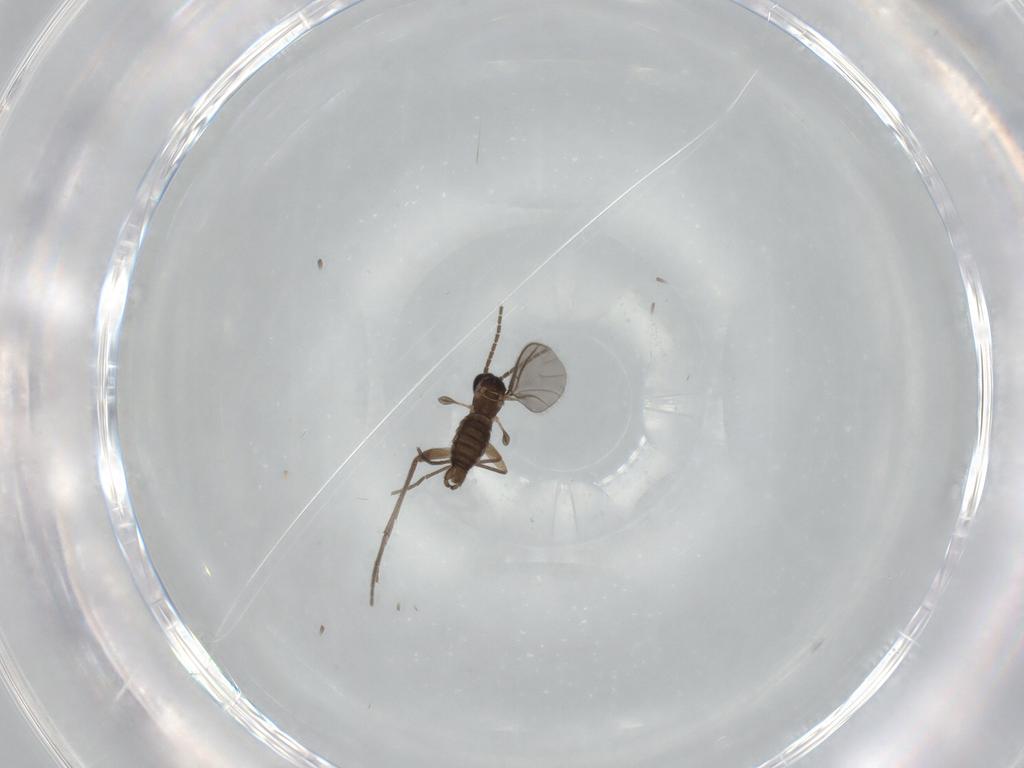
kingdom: Animalia
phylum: Arthropoda
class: Insecta
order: Diptera
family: Sciaridae
